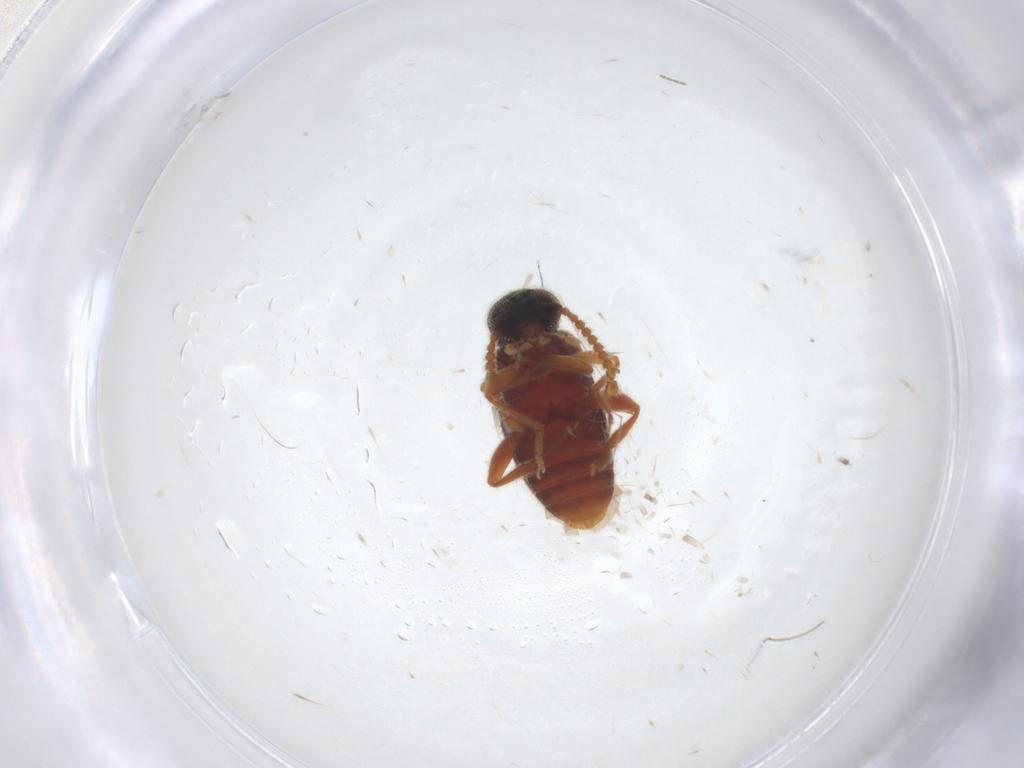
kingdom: Animalia
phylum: Arthropoda
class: Insecta
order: Coleoptera
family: Aderidae
